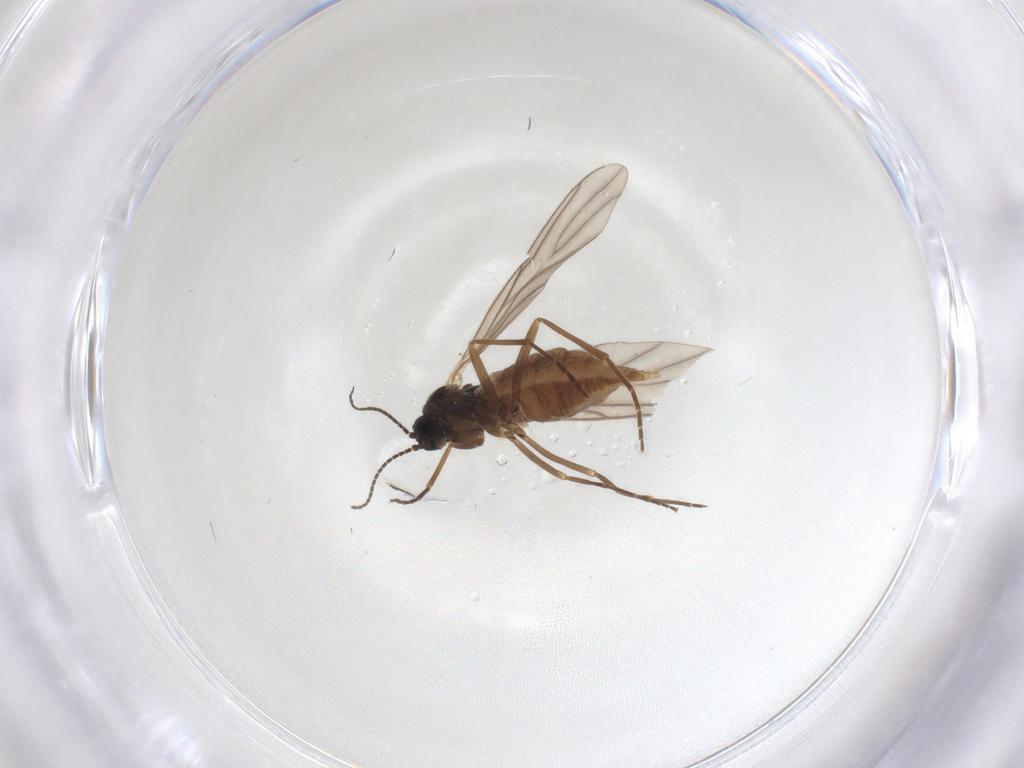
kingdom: Animalia
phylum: Arthropoda
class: Insecta
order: Diptera
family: Sciaridae
